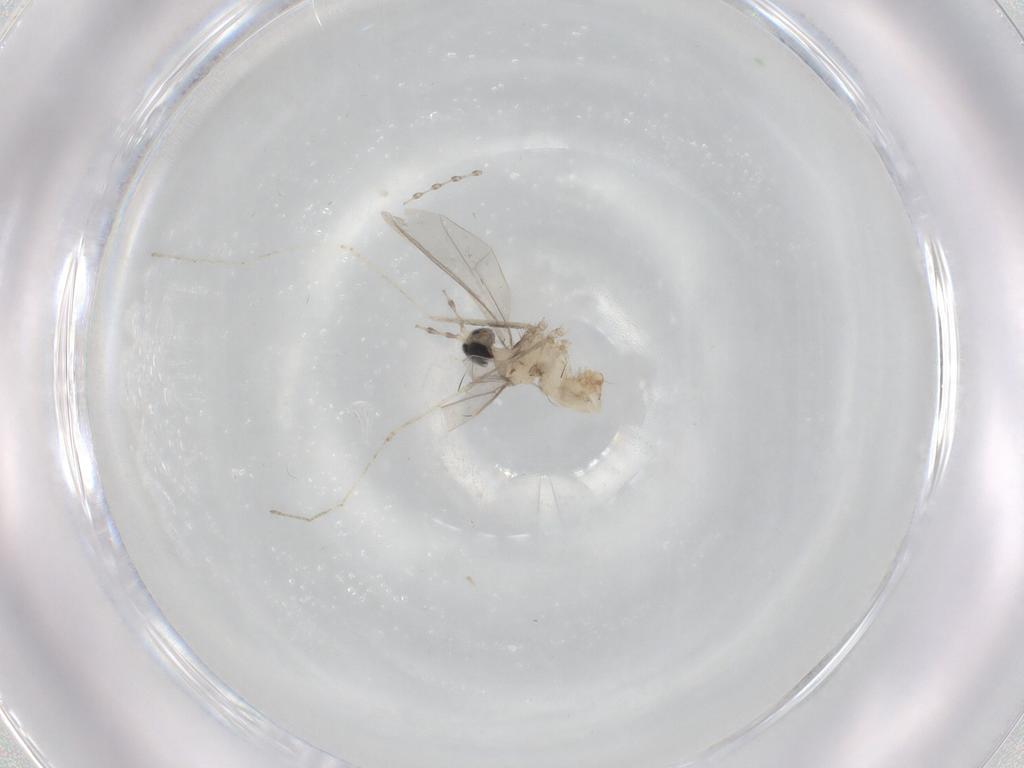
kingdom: Animalia
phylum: Arthropoda
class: Insecta
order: Diptera
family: Cecidomyiidae
